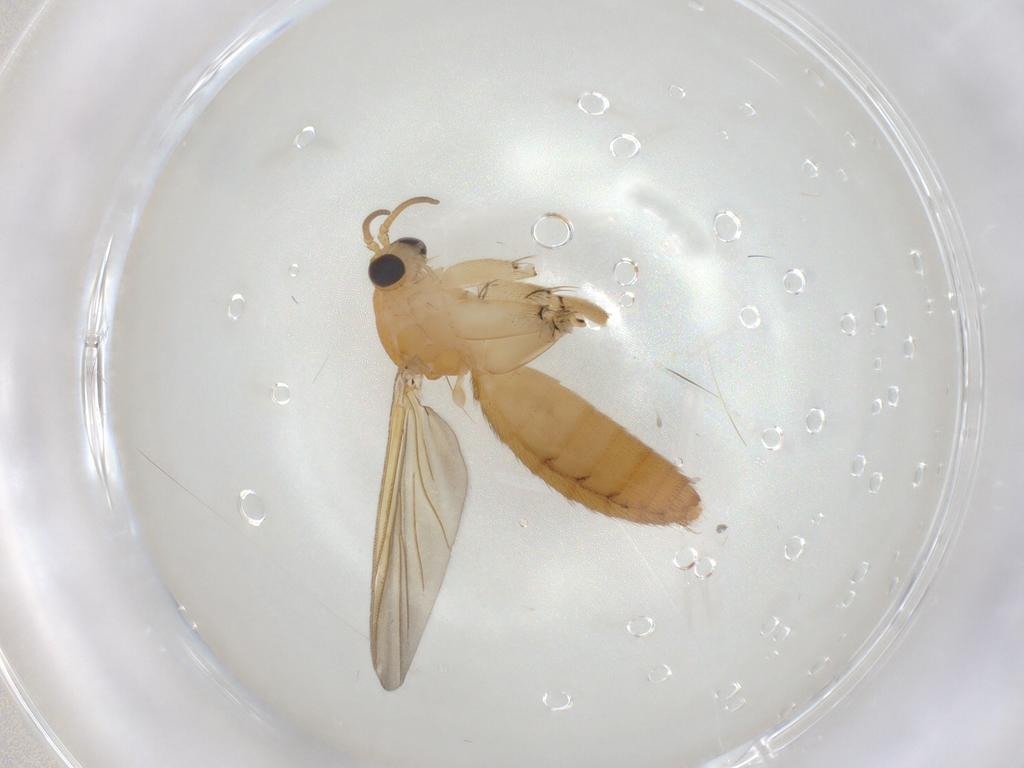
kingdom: Animalia
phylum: Arthropoda
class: Insecta
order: Diptera
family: Mycetophilidae
